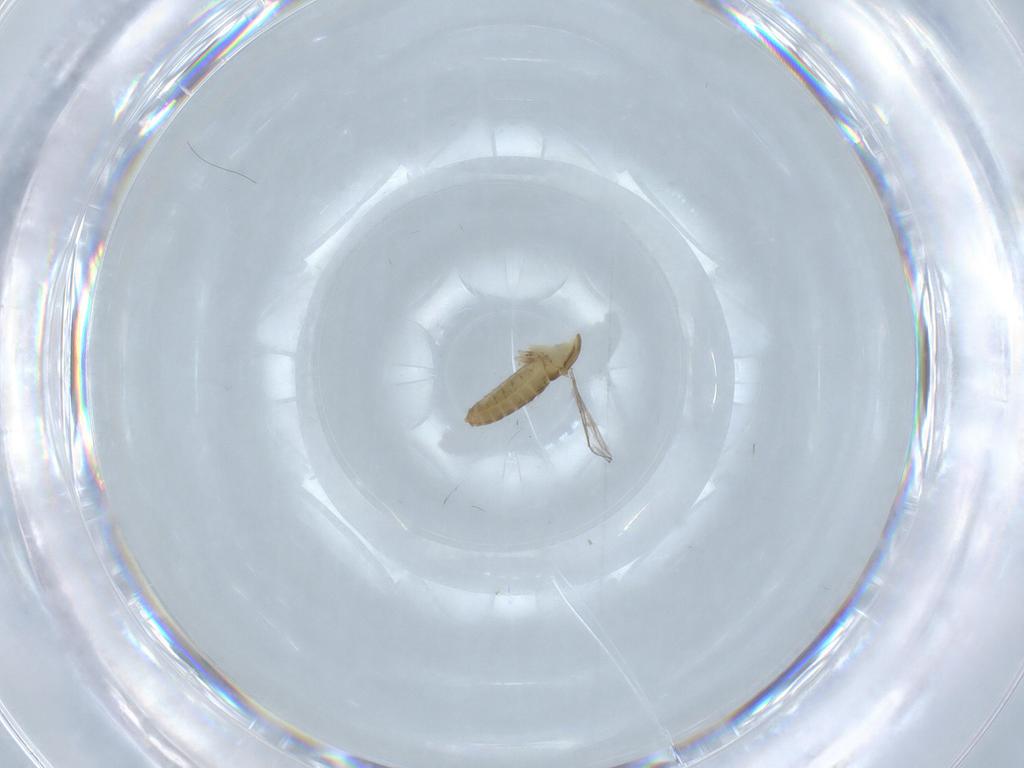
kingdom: Animalia
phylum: Arthropoda
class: Insecta
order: Diptera
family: Chironomidae
